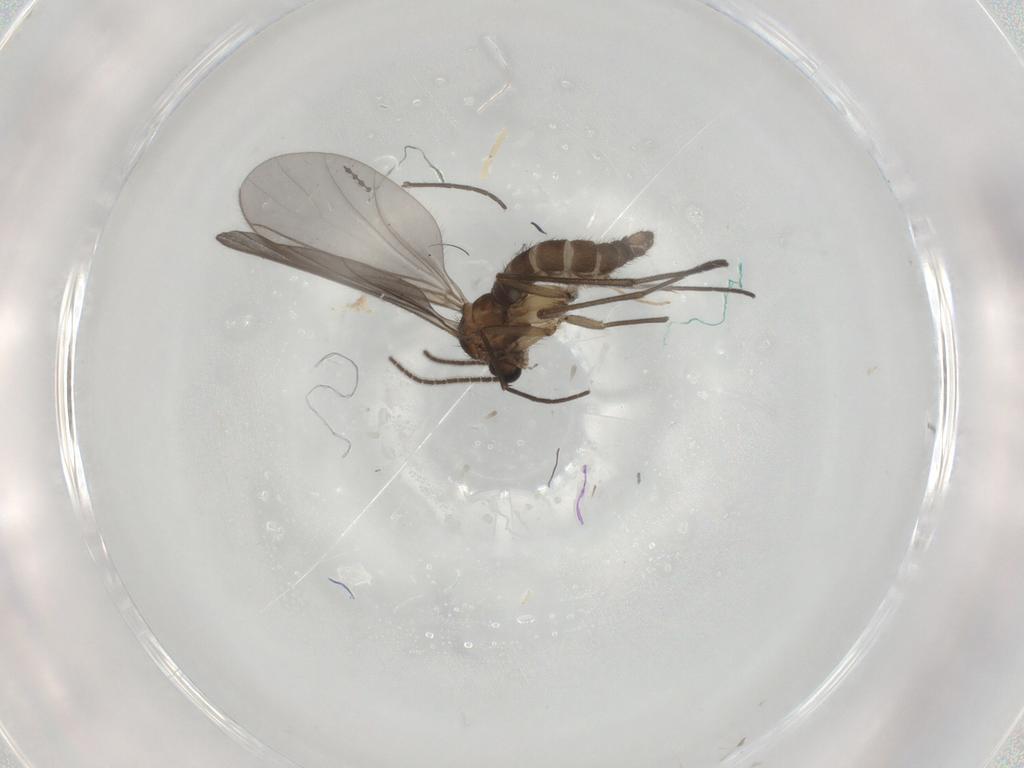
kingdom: Animalia
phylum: Arthropoda
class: Insecta
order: Diptera
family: Sciaridae
